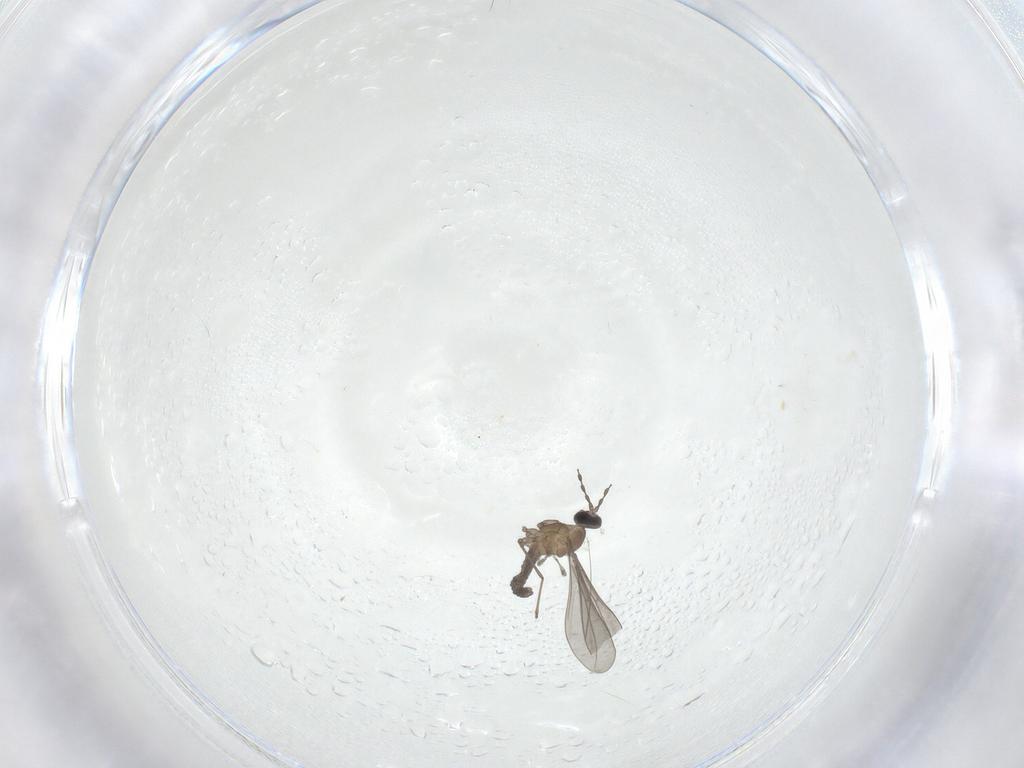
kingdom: Animalia
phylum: Arthropoda
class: Insecta
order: Diptera
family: Cecidomyiidae
